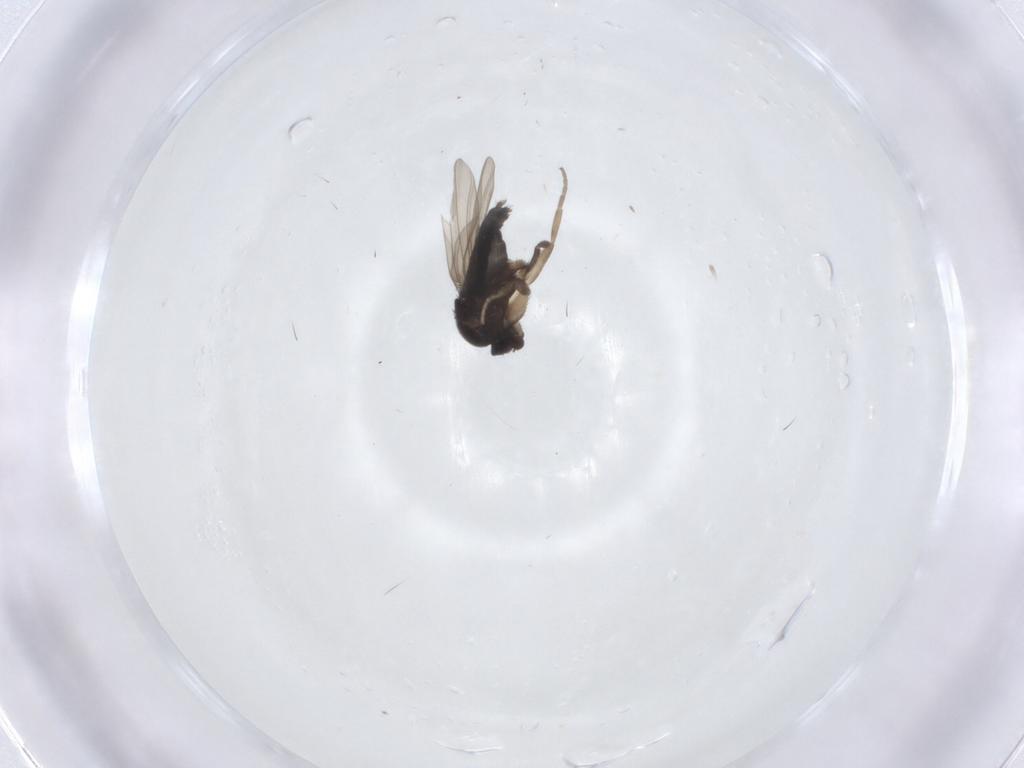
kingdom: Animalia
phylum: Arthropoda
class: Insecta
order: Diptera
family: Phoridae
